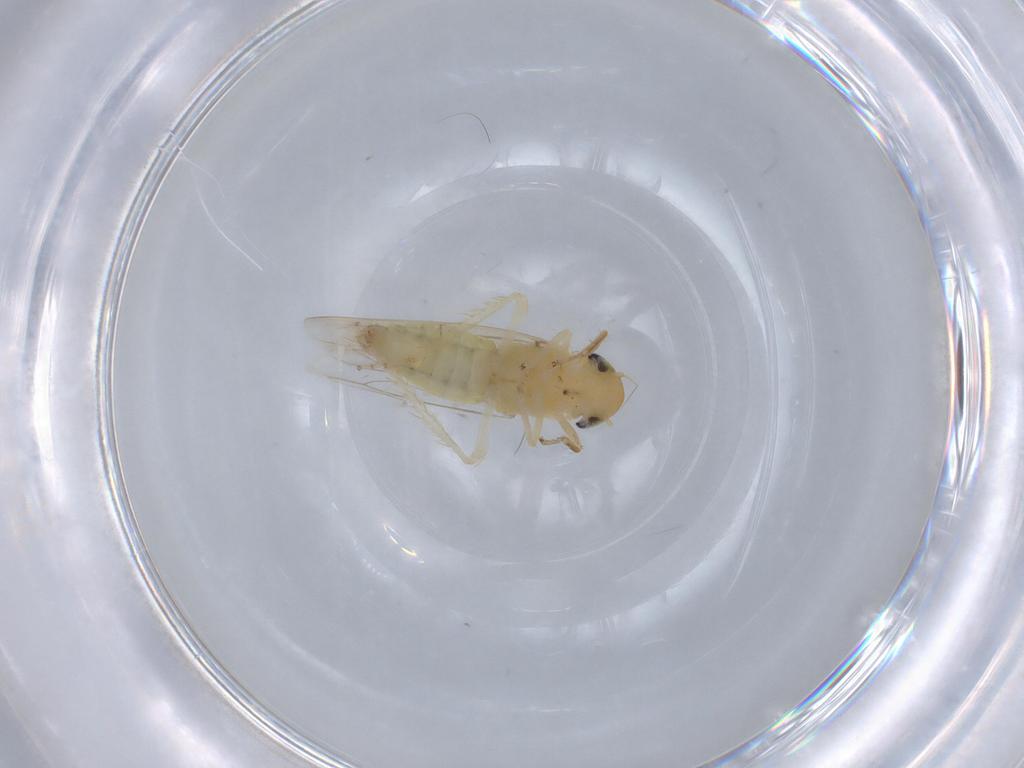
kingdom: Animalia
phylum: Arthropoda
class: Insecta
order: Hemiptera
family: Cicadellidae
